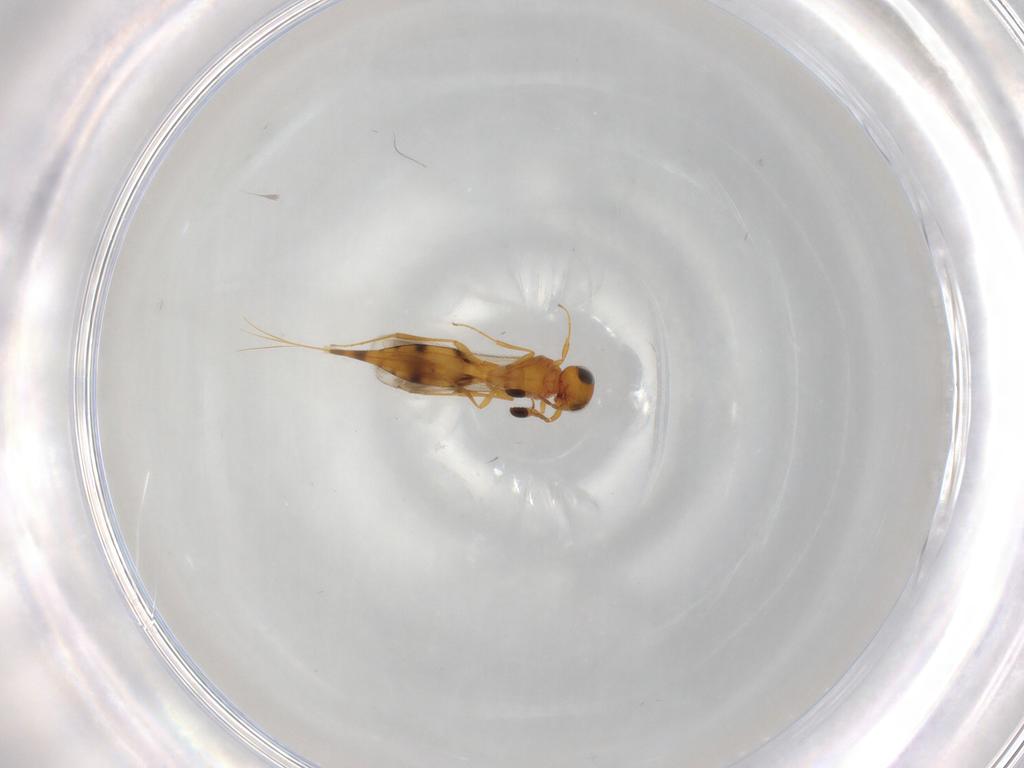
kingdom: Animalia
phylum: Arthropoda
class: Insecta
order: Hymenoptera
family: Scelionidae
